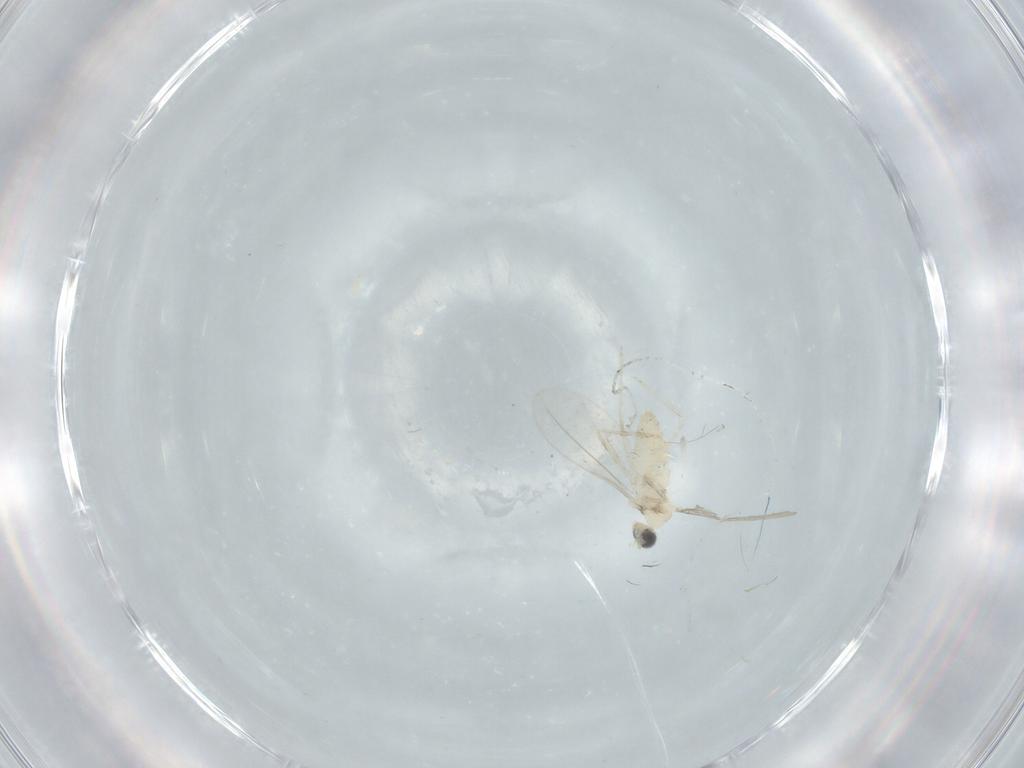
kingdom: Animalia
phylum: Arthropoda
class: Insecta
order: Diptera
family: Cecidomyiidae
